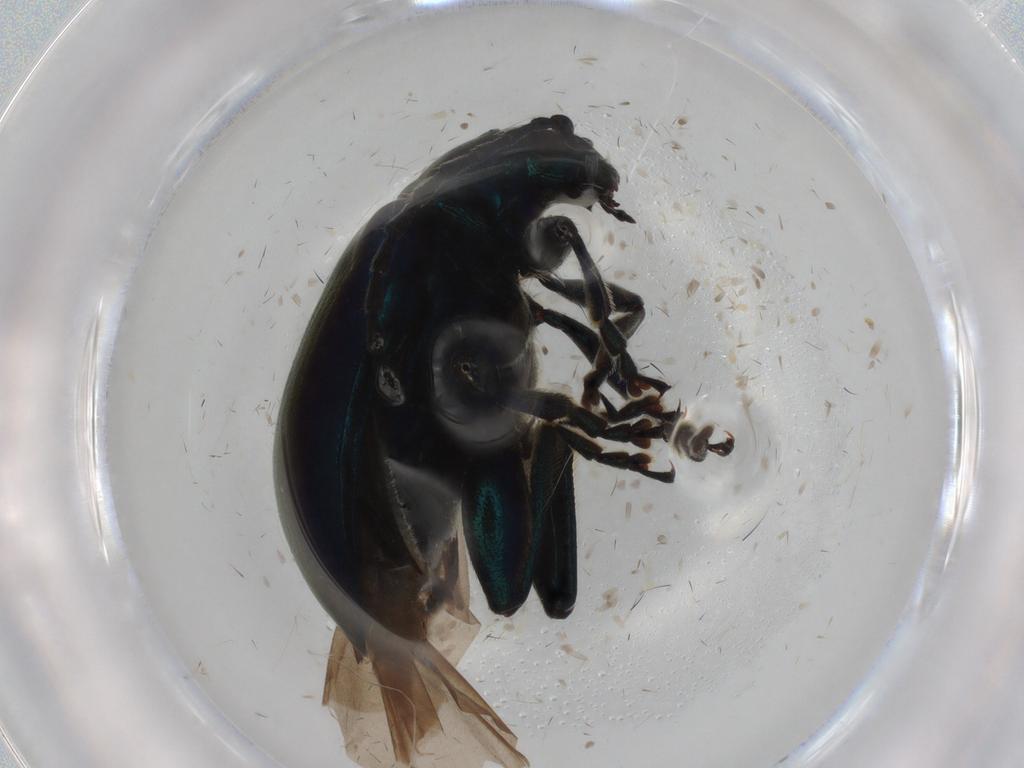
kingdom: Animalia
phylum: Arthropoda
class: Insecta
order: Coleoptera
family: Chrysomelidae
